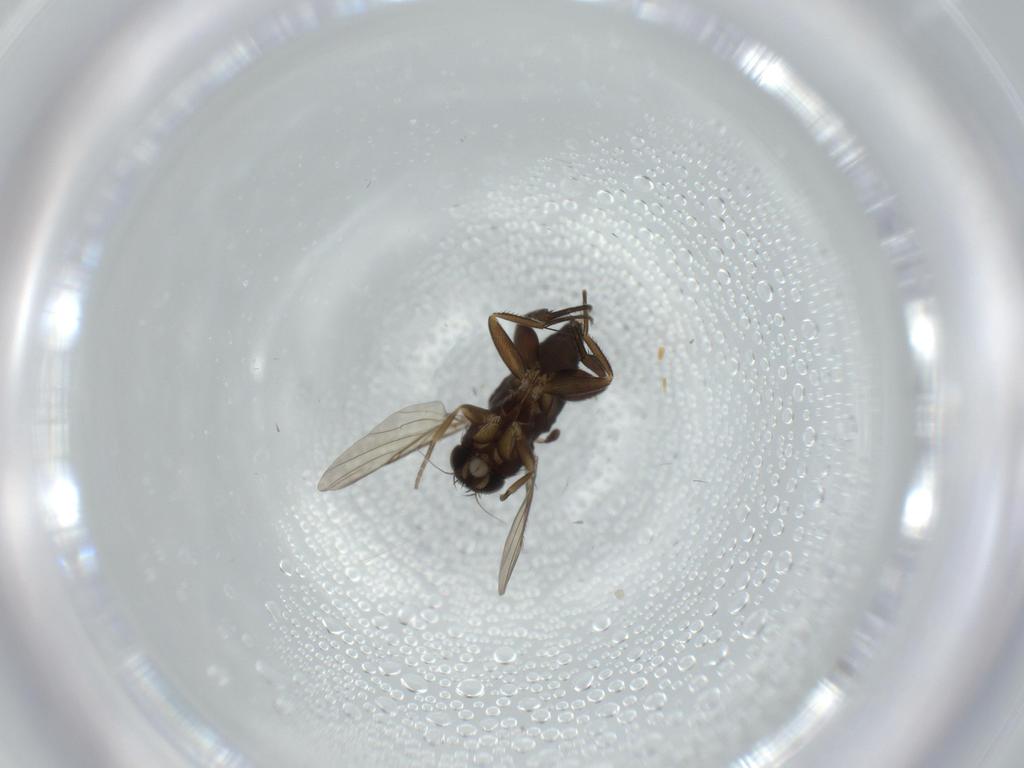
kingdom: Animalia
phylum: Arthropoda
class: Insecta
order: Diptera
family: Phoridae
